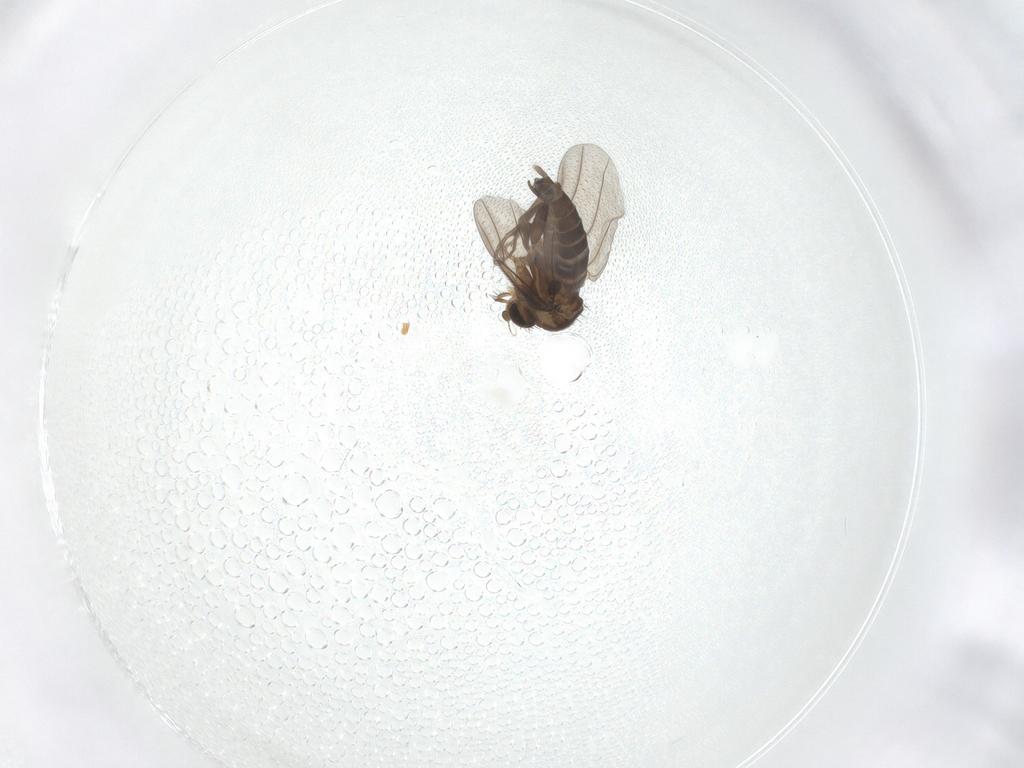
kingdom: Animalia
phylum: Arthropoda
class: Insecta
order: Diptera
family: Phoridae
